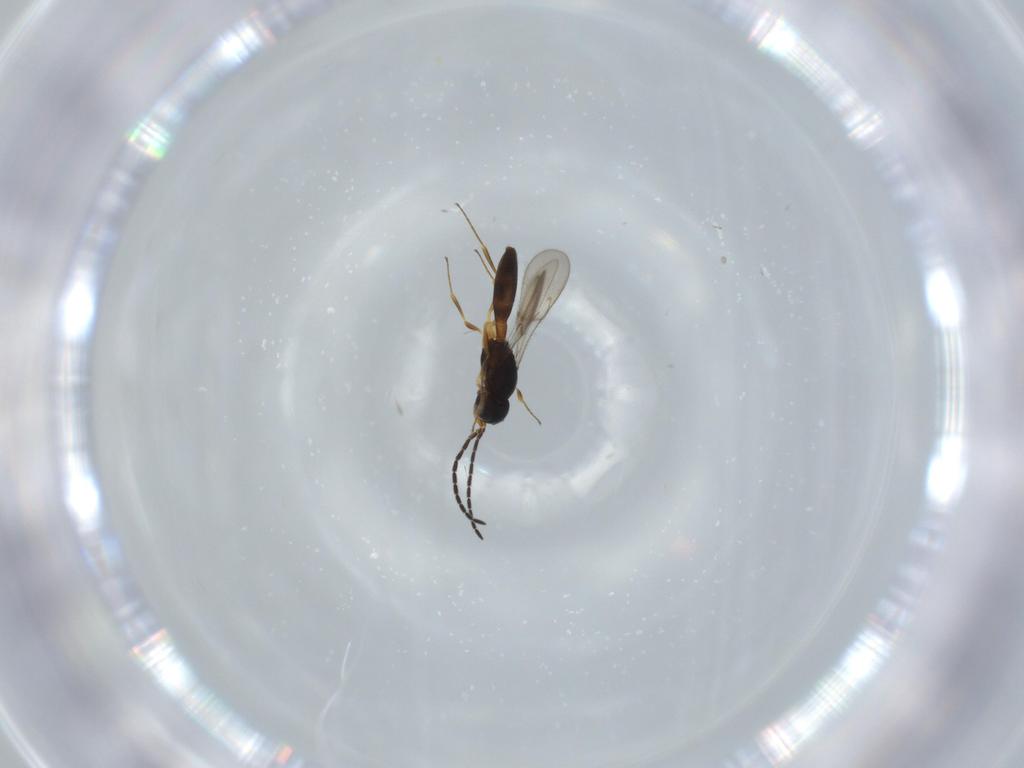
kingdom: Animalia
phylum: Arthropoda
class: Insecta
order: Hymenoptera
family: Scelionidae
